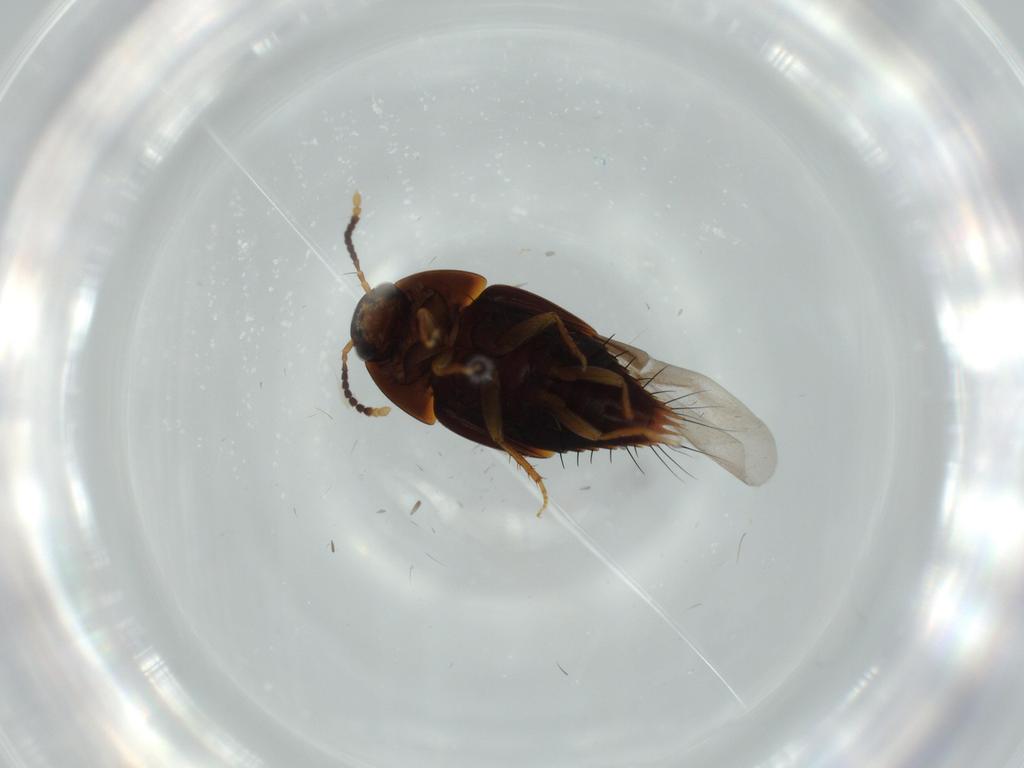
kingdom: Animalia
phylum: Arthropoda
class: Insecta
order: Coleoptera
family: Staphylinidae
